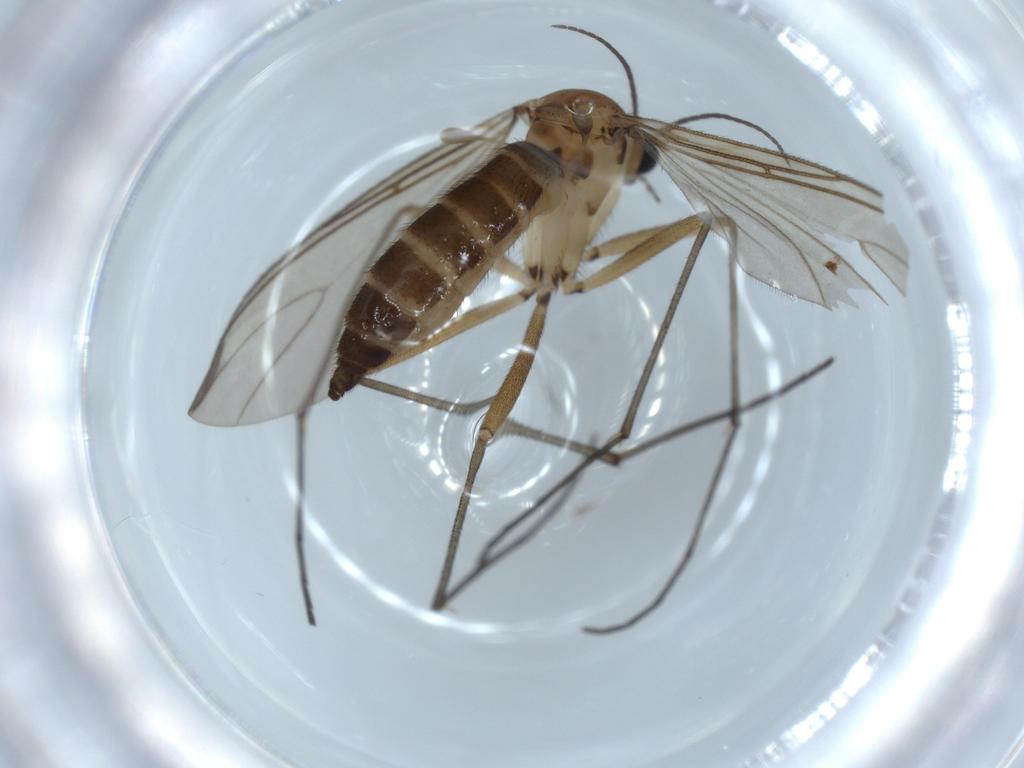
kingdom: Animalia
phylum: Arthropoda
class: Insecta
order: Diptera
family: Sciaridae
